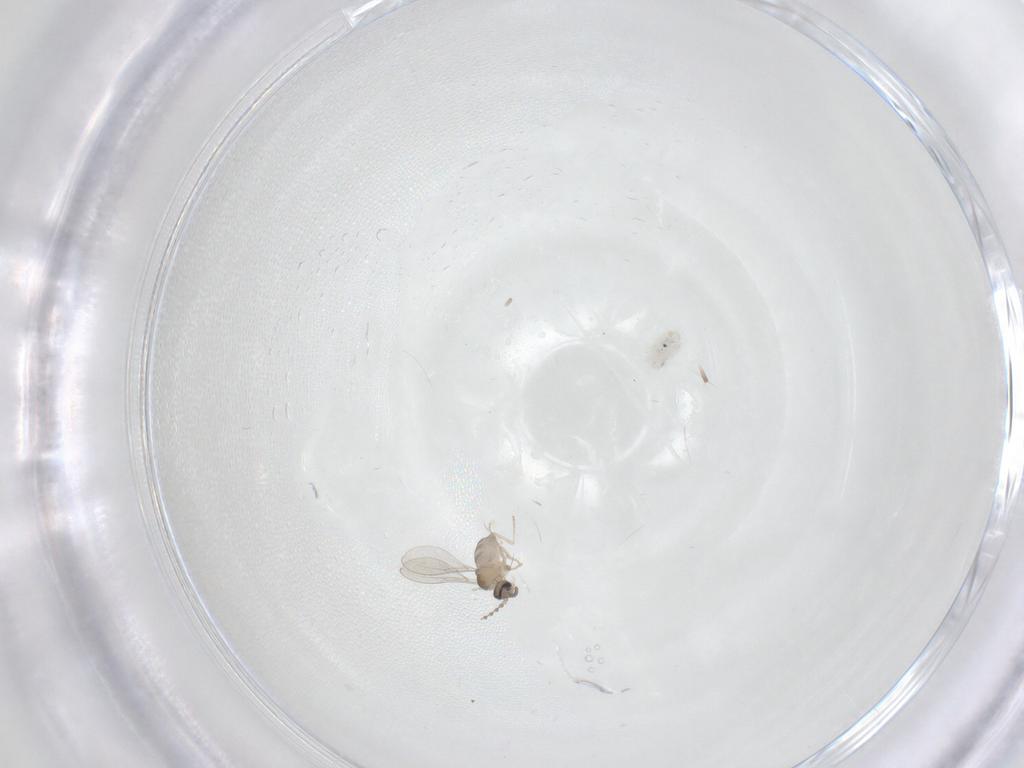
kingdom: Animalia
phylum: Arthropoda
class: Insecta
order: Diptera
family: Cecidomyiidae
